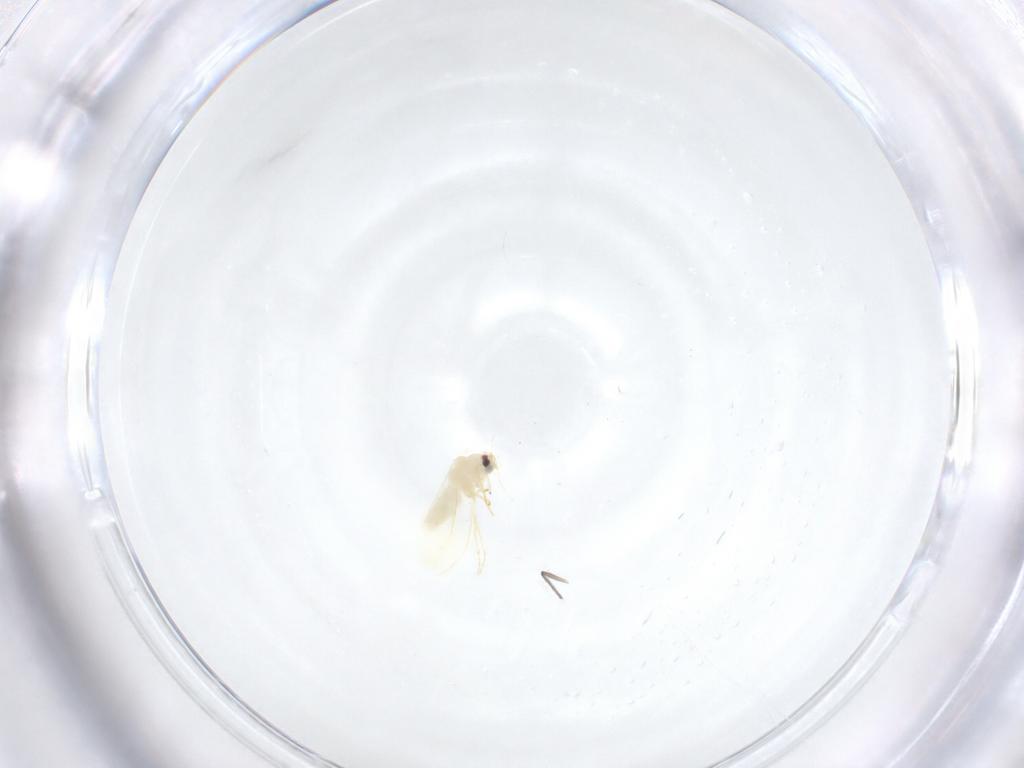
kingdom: Animalia
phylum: Arthropoda
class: Insecta
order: Hemiptera
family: Aleyrodidae
